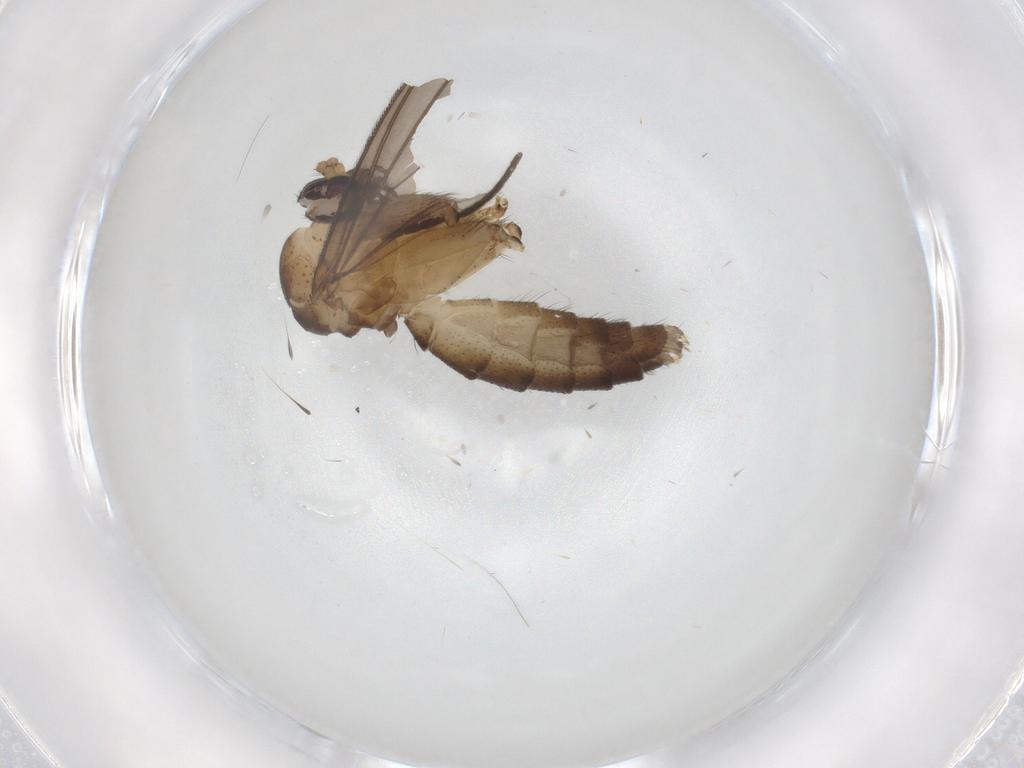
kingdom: Animalia
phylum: Arthropoda
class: Insecta
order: Diptera
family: Mycetophilidae
